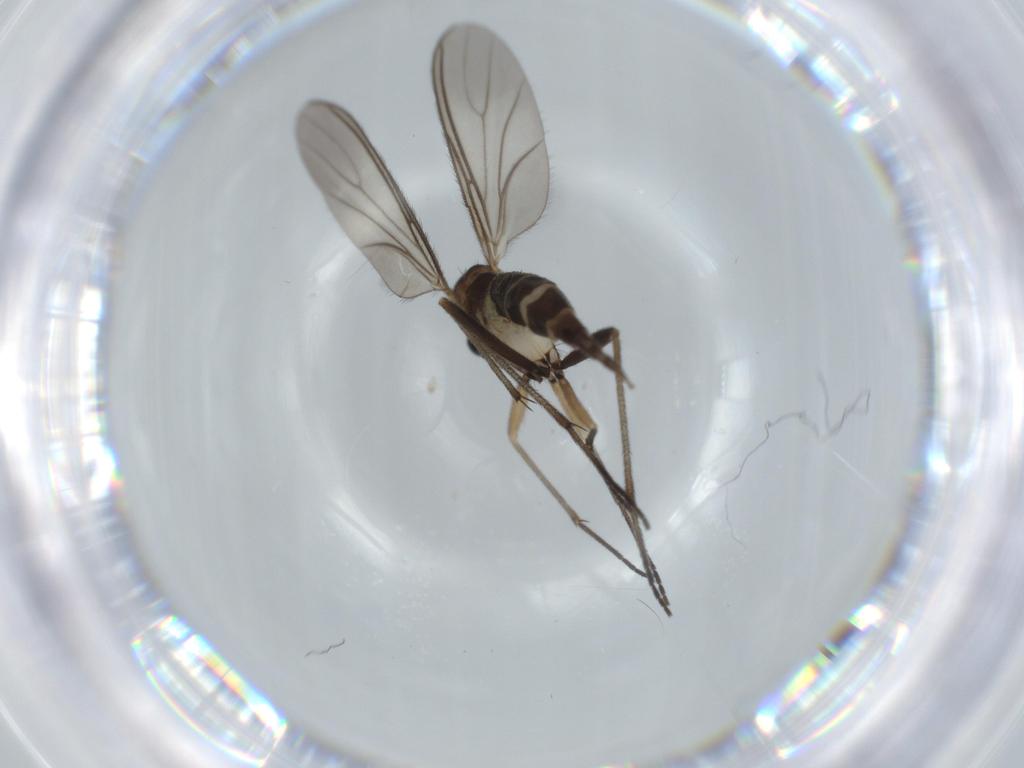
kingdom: Animalia
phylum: Arthropoda
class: Insecta
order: Diptera
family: Sciaridae
